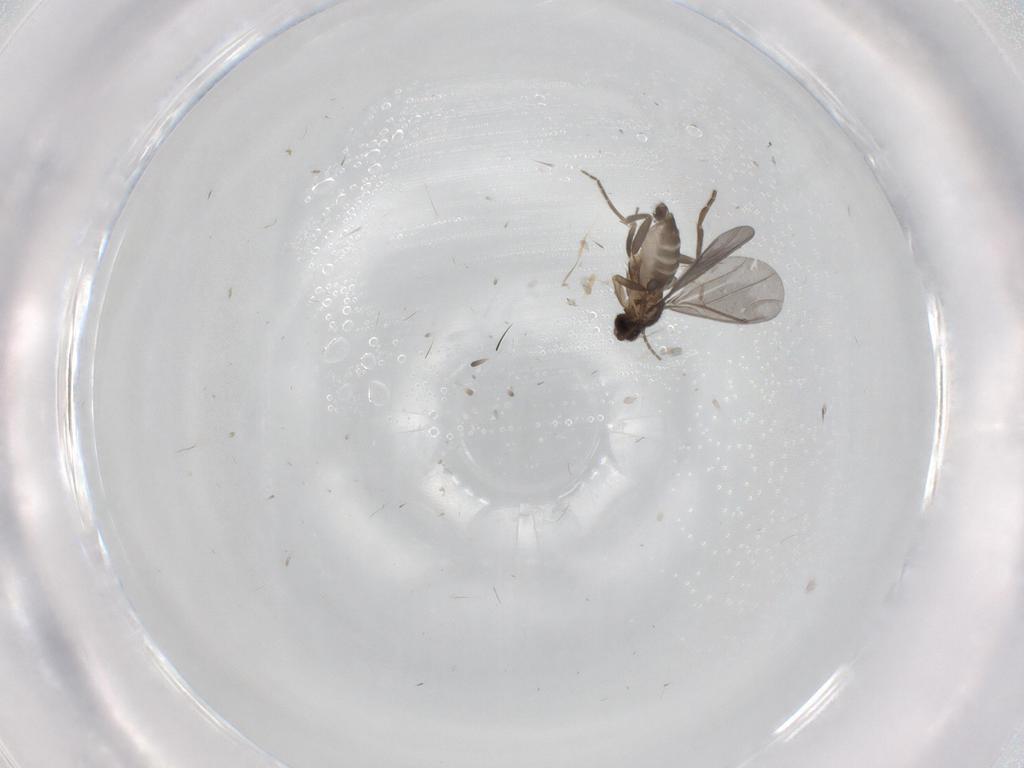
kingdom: Animalia
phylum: Arthropoda
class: Insecta
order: Diptera
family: Phoridae
